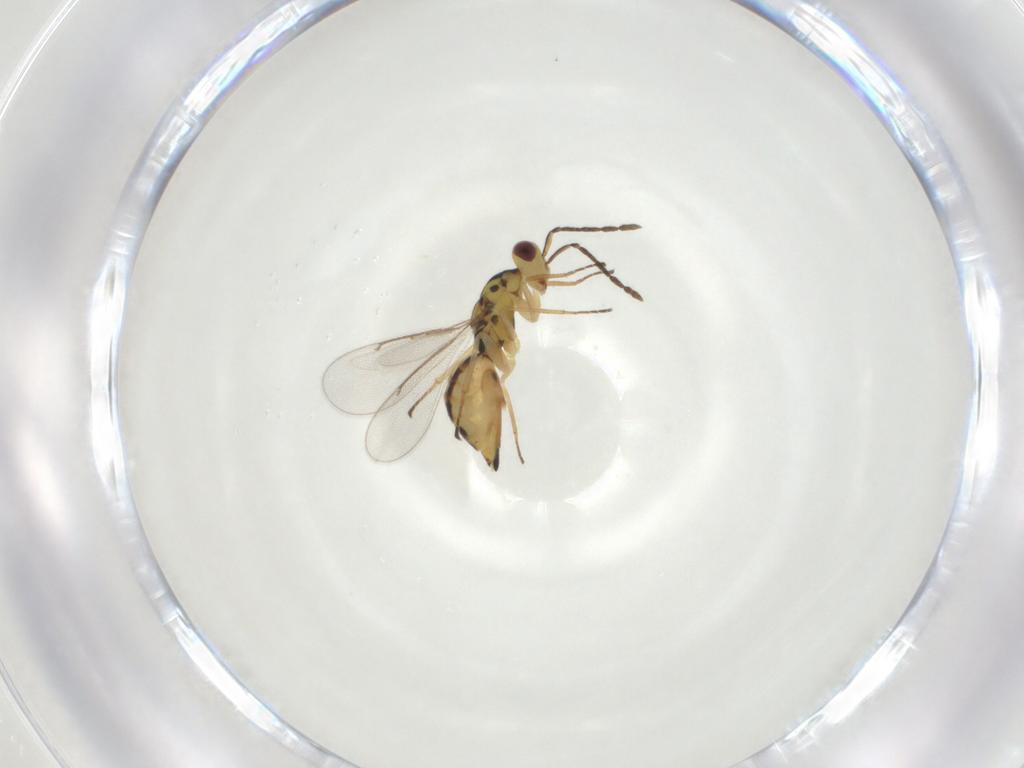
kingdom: Animalia
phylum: Arthropoda
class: Insecta
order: Hymenoptera
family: Eulophidae
